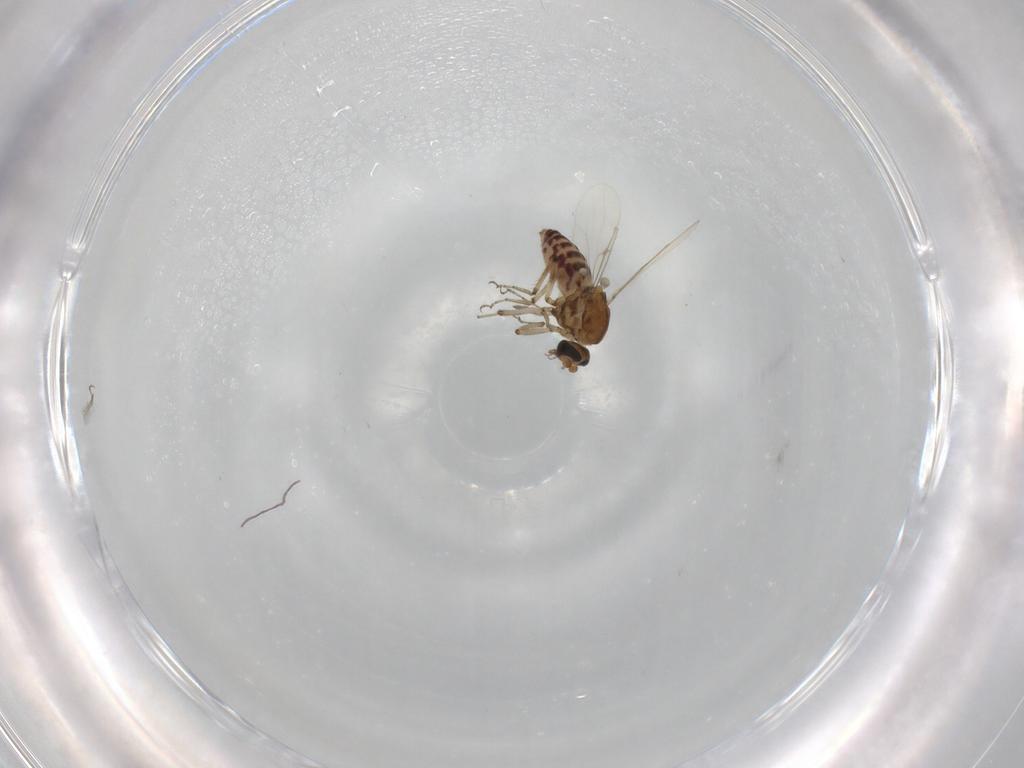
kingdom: Animalia
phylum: Arthropoda
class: Insecta
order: Diptera
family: Ceratopogonidae
